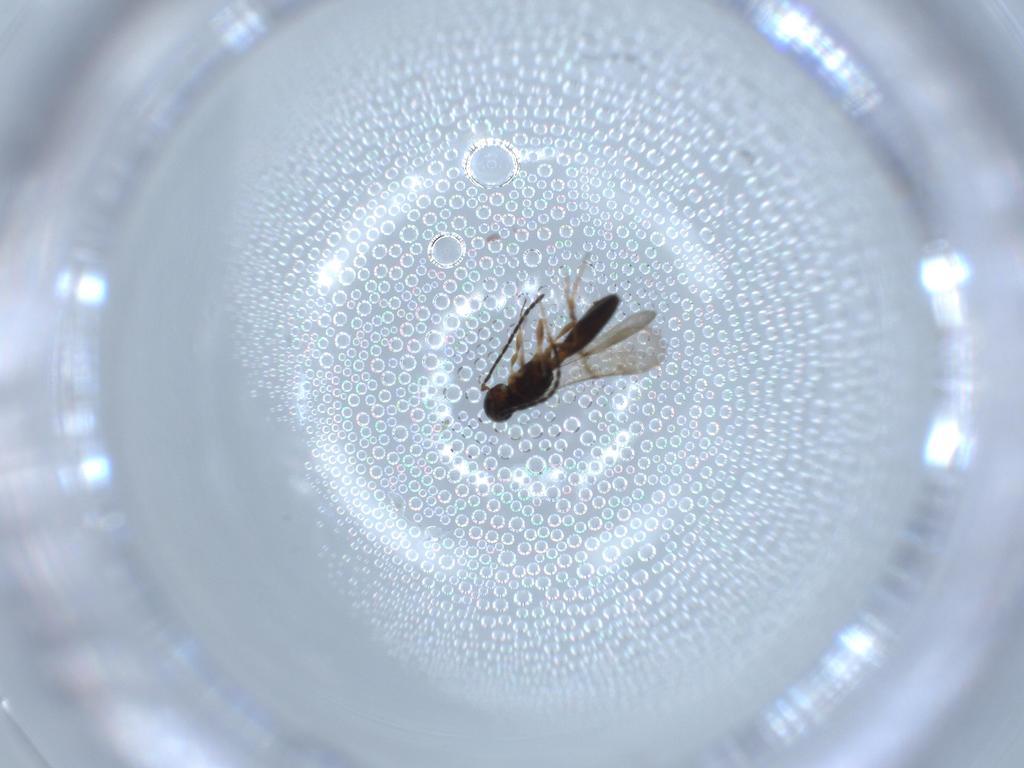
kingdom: Animalia
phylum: Arthropoda
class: Insecta
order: Hymenoptera
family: Scelionidae
